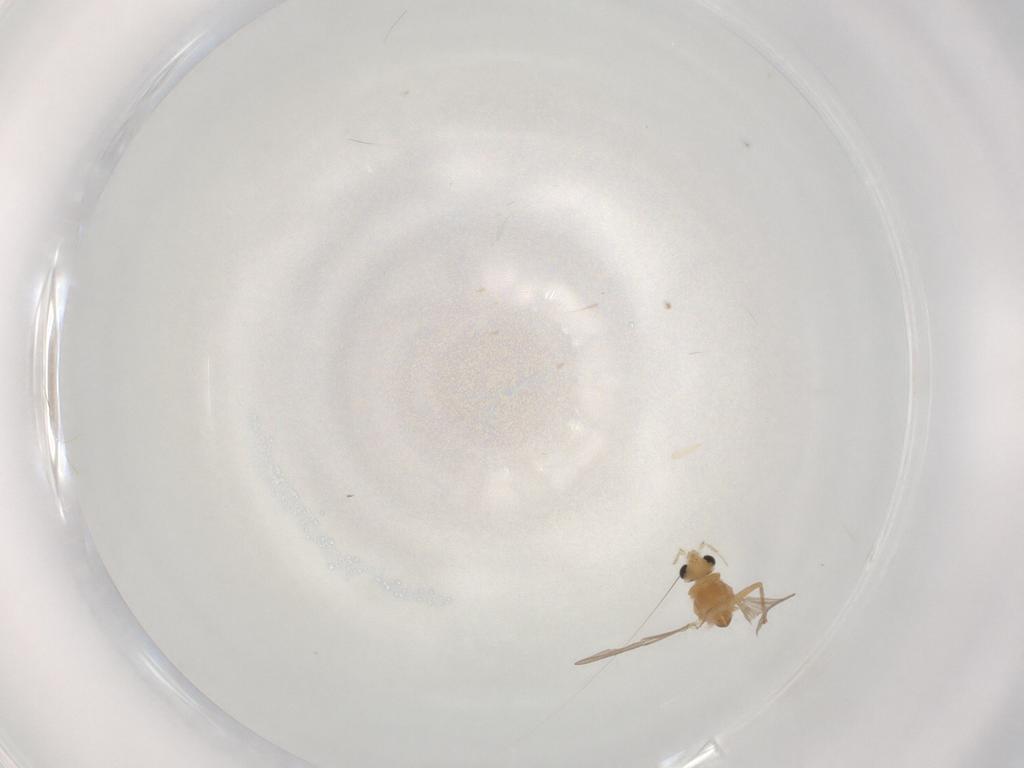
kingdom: Animalia
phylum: Arthropoda
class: Insecta
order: Diptera
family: Chironomidae
